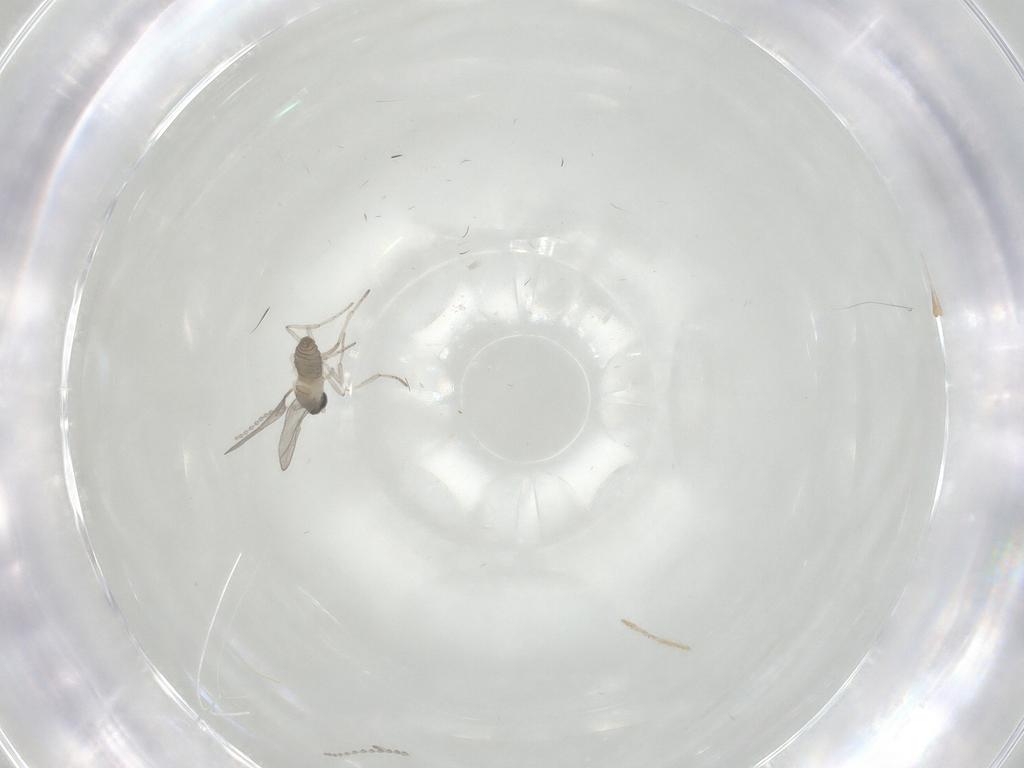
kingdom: Animalia
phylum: Arthropoda
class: Insecta
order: Diptera
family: Cecidomyiidae
